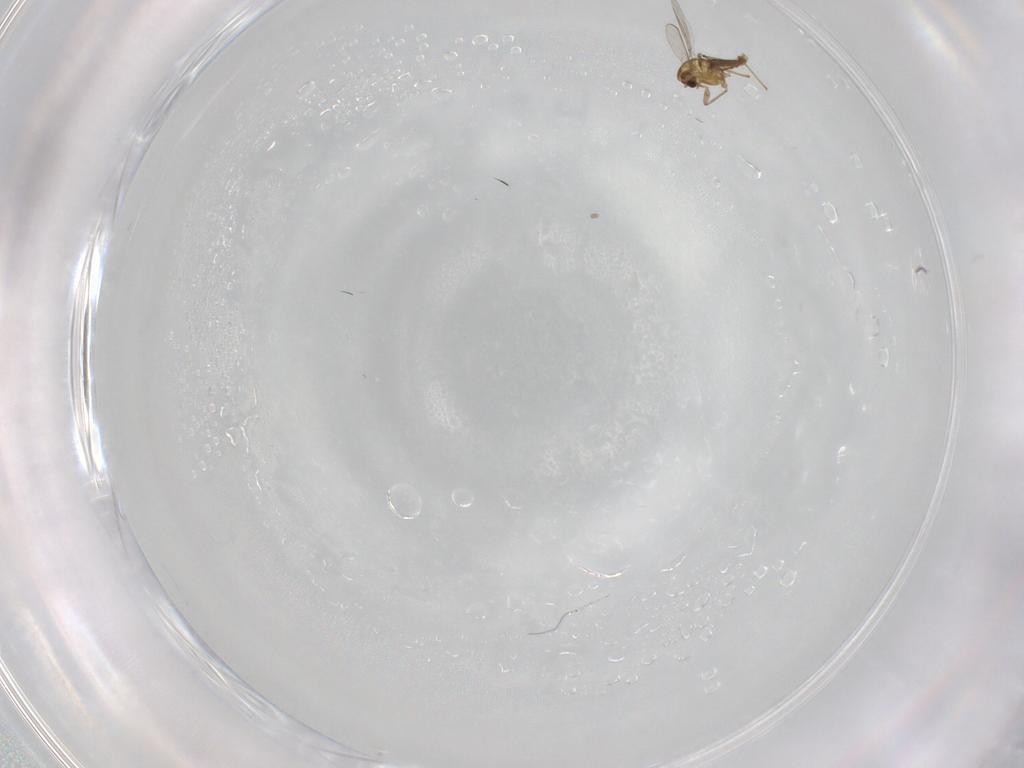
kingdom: Animalia
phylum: Arthropoda
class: Insecta
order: Diptera
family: Chironomidae
